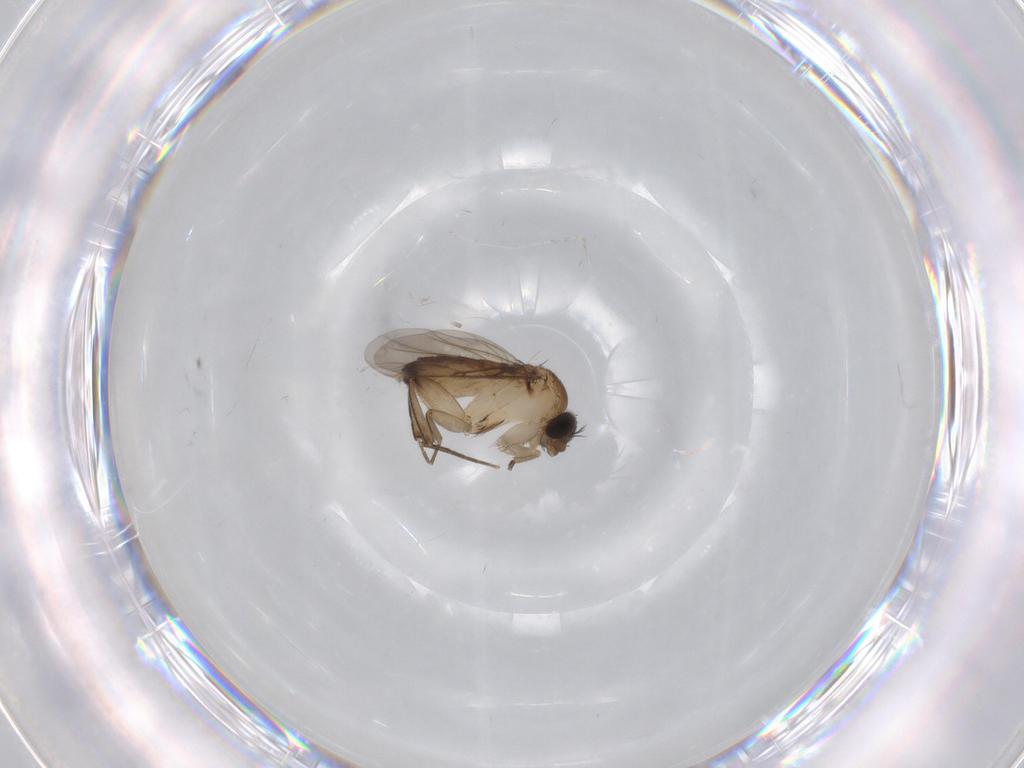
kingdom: Animalia
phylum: Arthropoda
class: Insecta
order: Diptera
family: Phoridae
